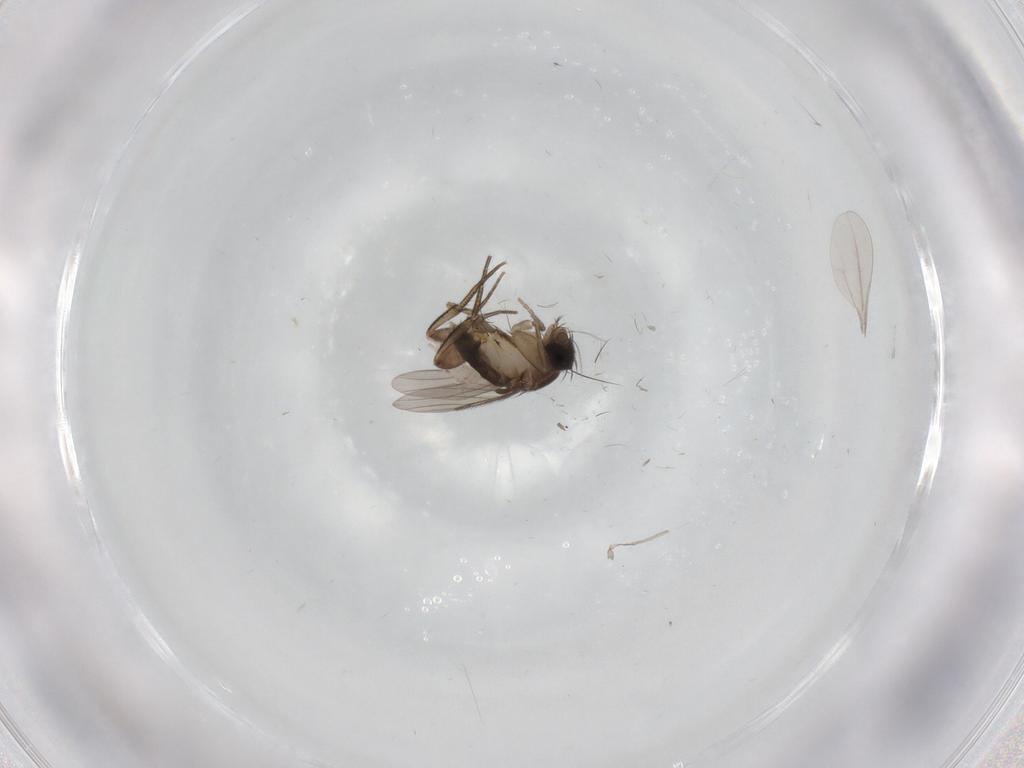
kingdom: Animalia
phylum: Arthropoda
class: Insecta
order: Diptera
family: Phoridae
